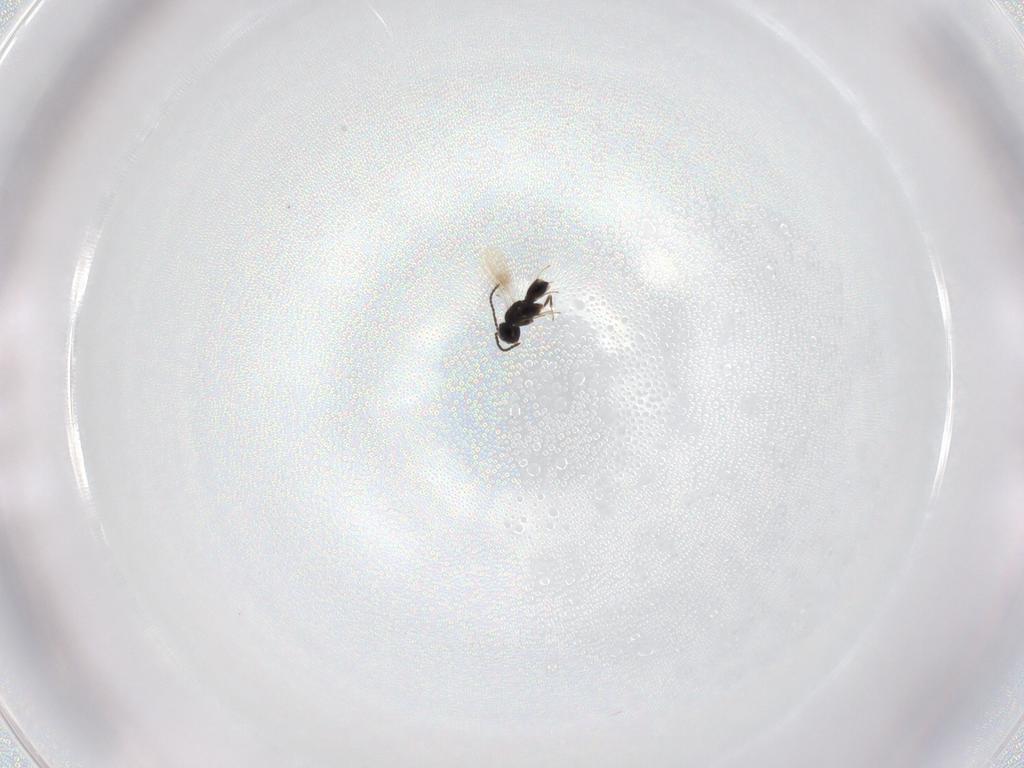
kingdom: Animalia
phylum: Arthropoda
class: Insecta
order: Hymenoptera
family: Scelionidae
